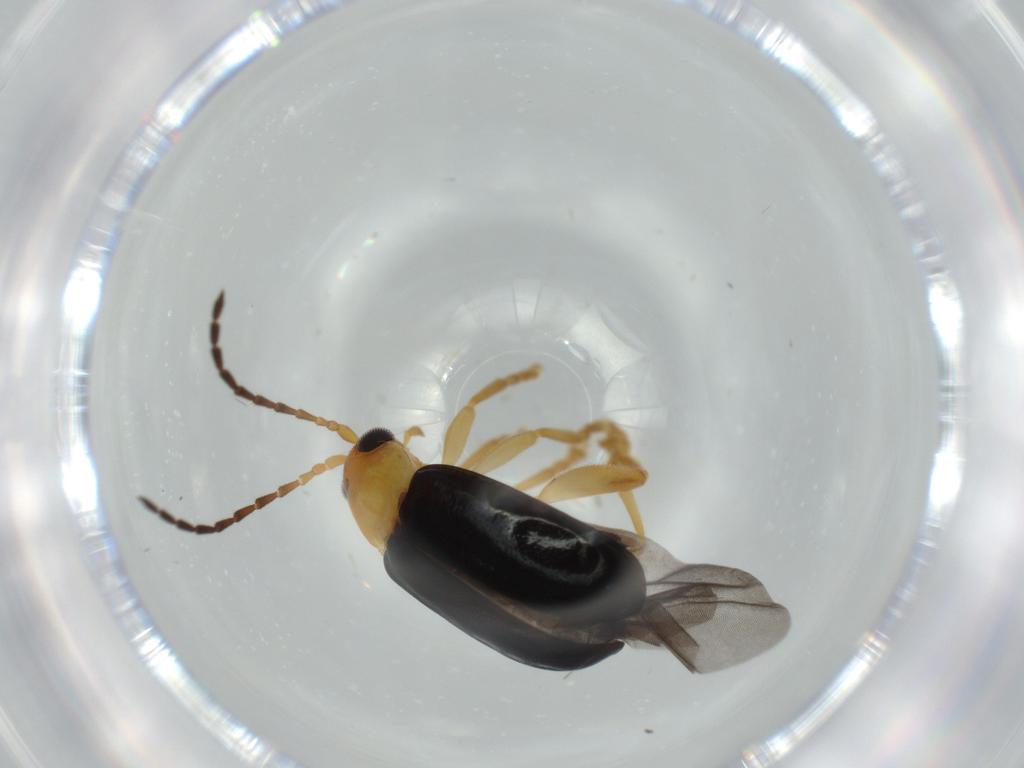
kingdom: Animalia
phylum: Arthropoda
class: Insecta
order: Coleoptera
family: Chrysomelidae
